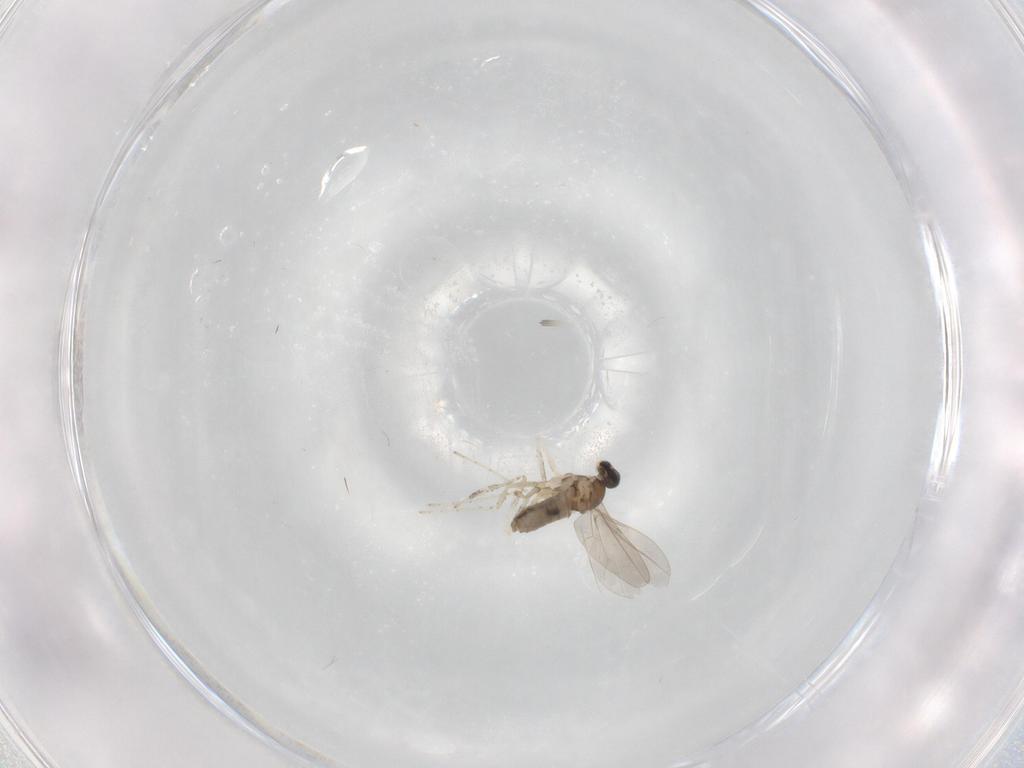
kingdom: Animalia
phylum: Arthropoda
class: Insecta
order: Diptera
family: Cecidomyiidae
